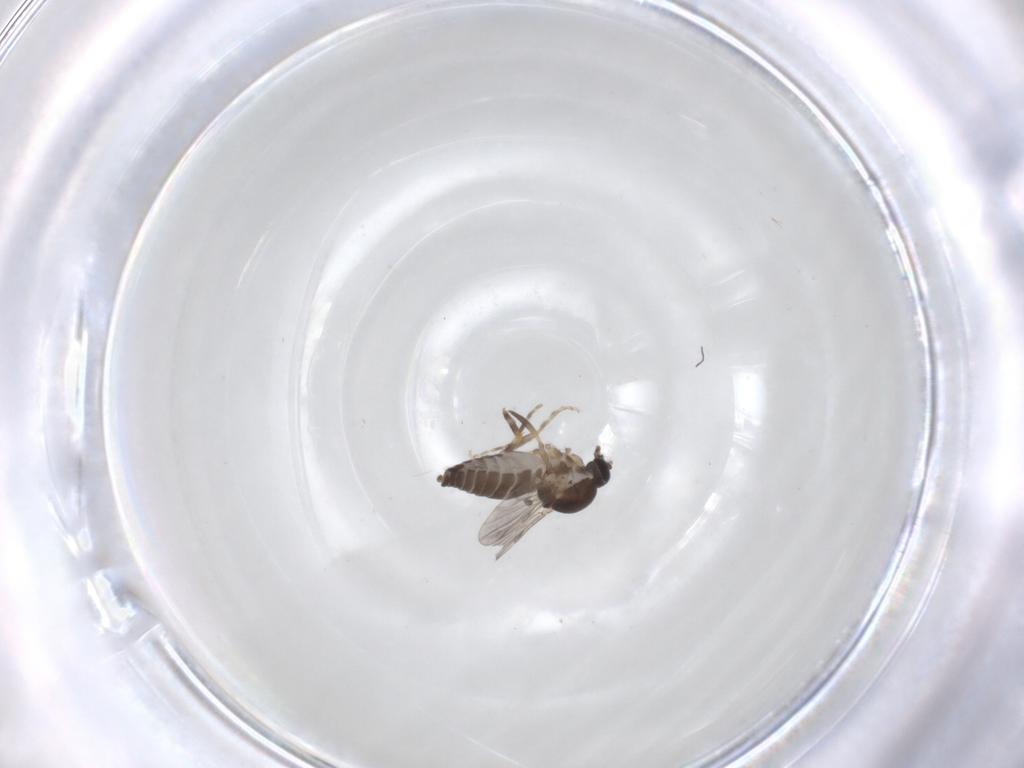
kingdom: Animalia
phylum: Arthropoda
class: Insecta
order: Diptera
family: Ceratopogonidae
